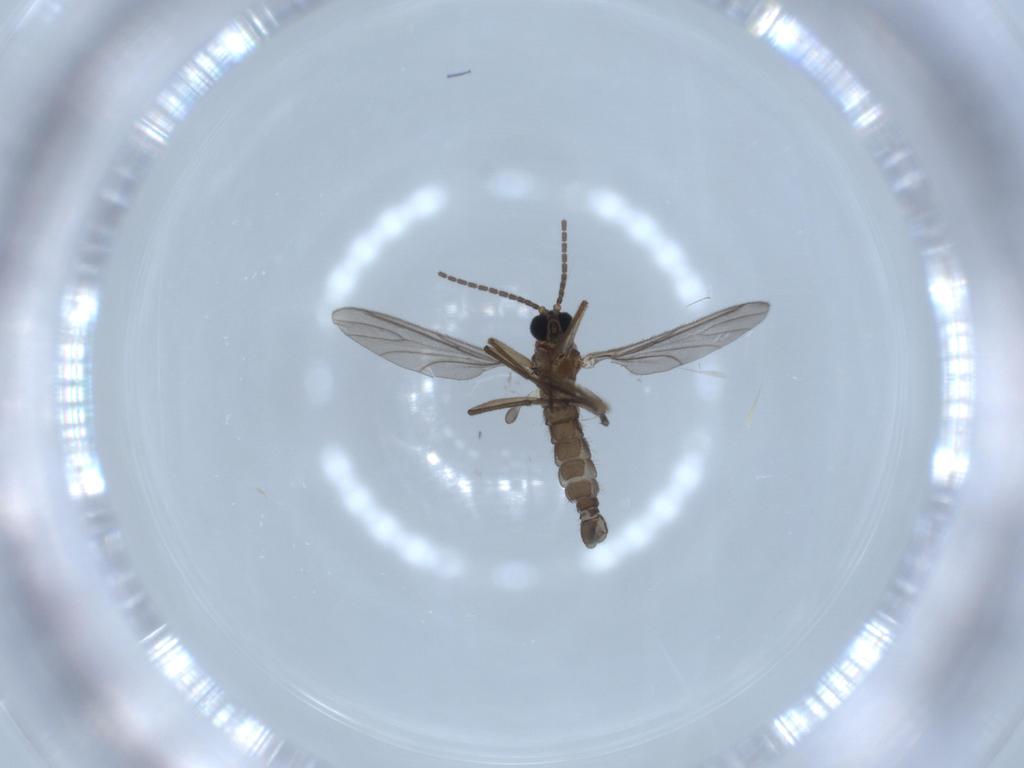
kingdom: Animalia
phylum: Arthropoda
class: Insecta
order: Diptera
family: Sciaridae
